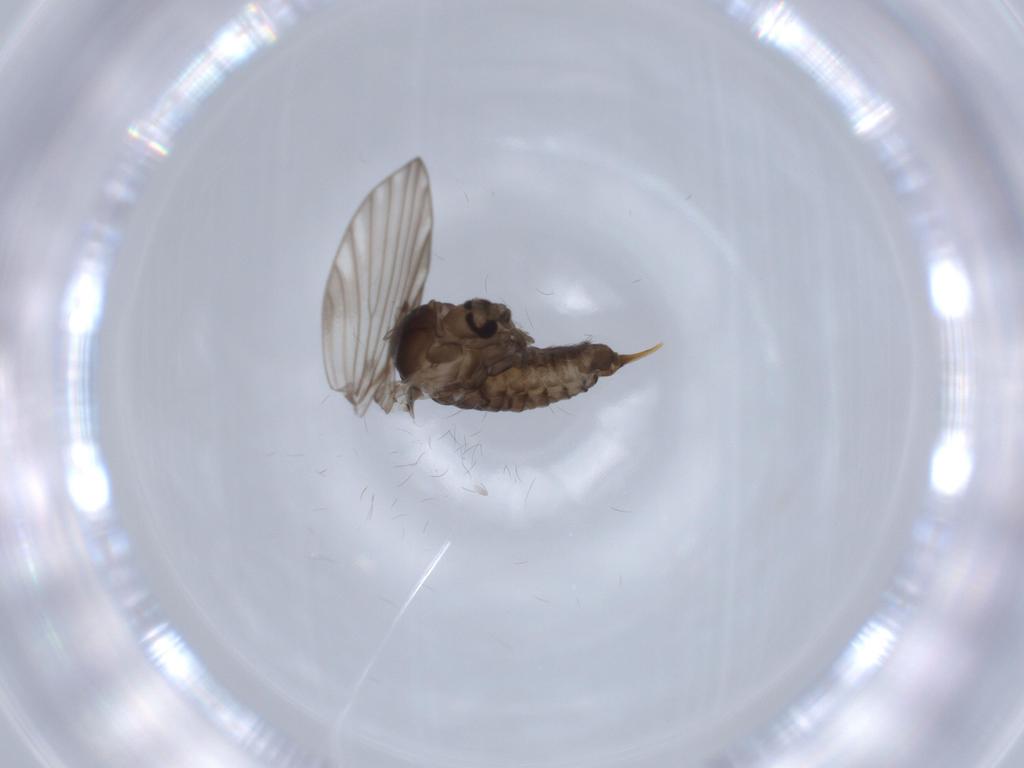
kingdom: Animalia
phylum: Arthropoda
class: Insecta
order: Diptera
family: Psychodidae
